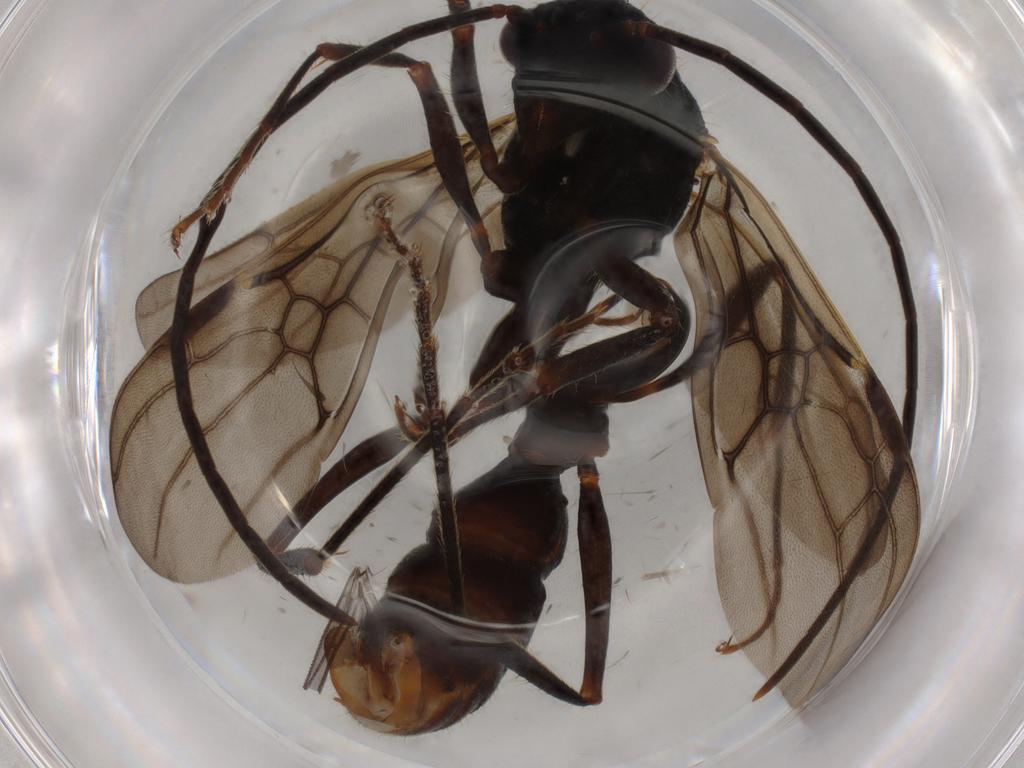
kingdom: Animalia
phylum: Arthropoda
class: Insecta
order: Hymenoptera
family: Formicidae
